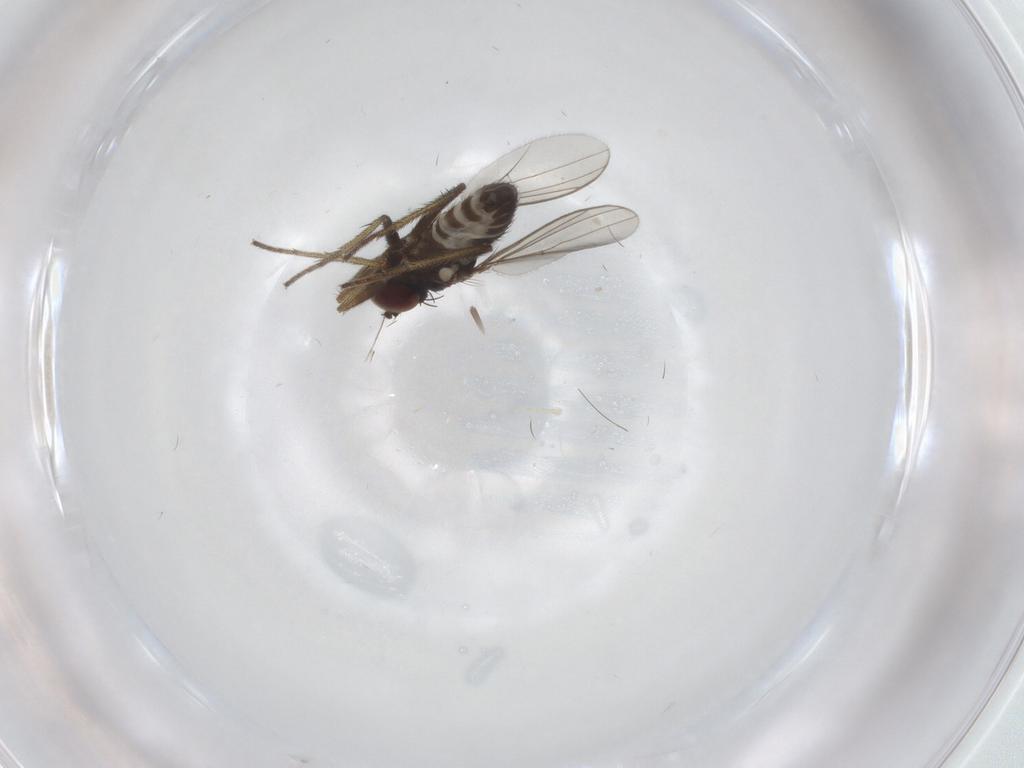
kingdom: Animalia
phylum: Arthropoda
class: Insecta
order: Diptera
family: Dolichopodidae
